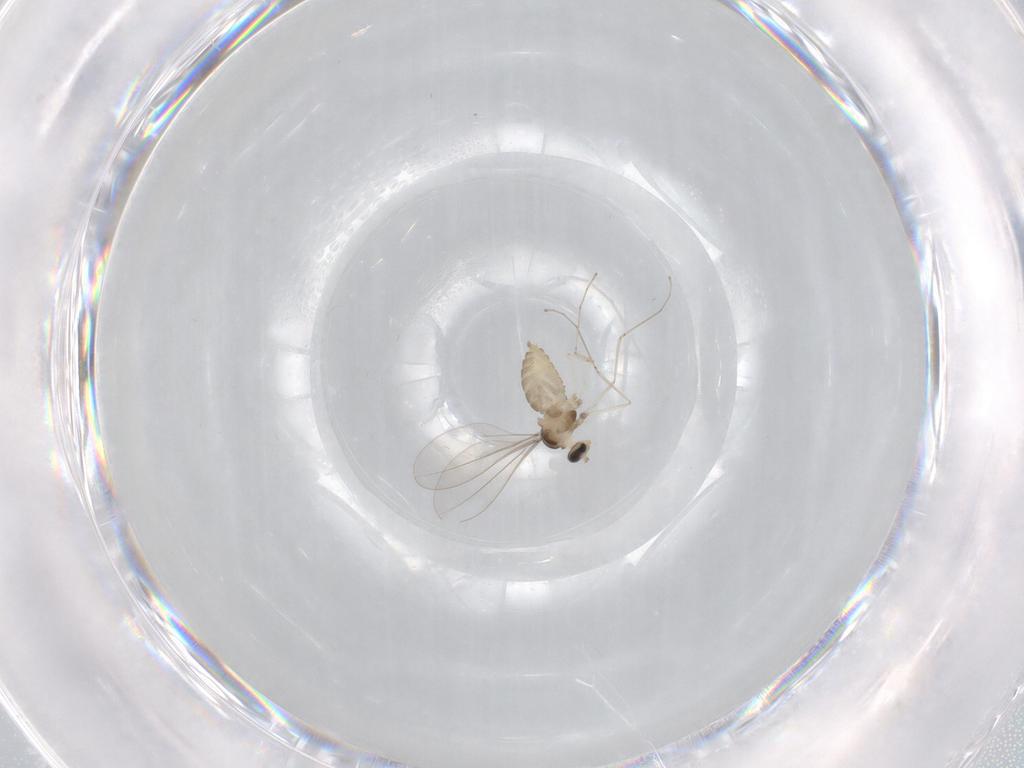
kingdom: Animalia
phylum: Arthropoda
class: Insecta
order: Diptera
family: Cecidomyiidae
